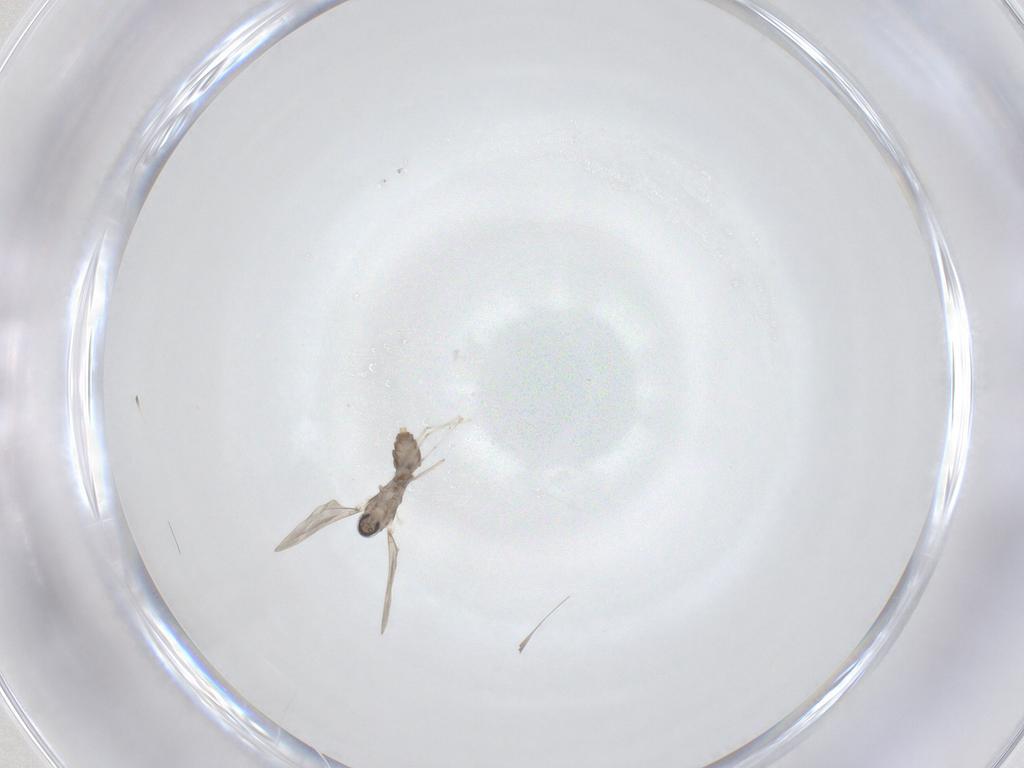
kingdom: Animalia
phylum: Arthropoda
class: Insecta
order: Diptera
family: Cecidomyiidae
